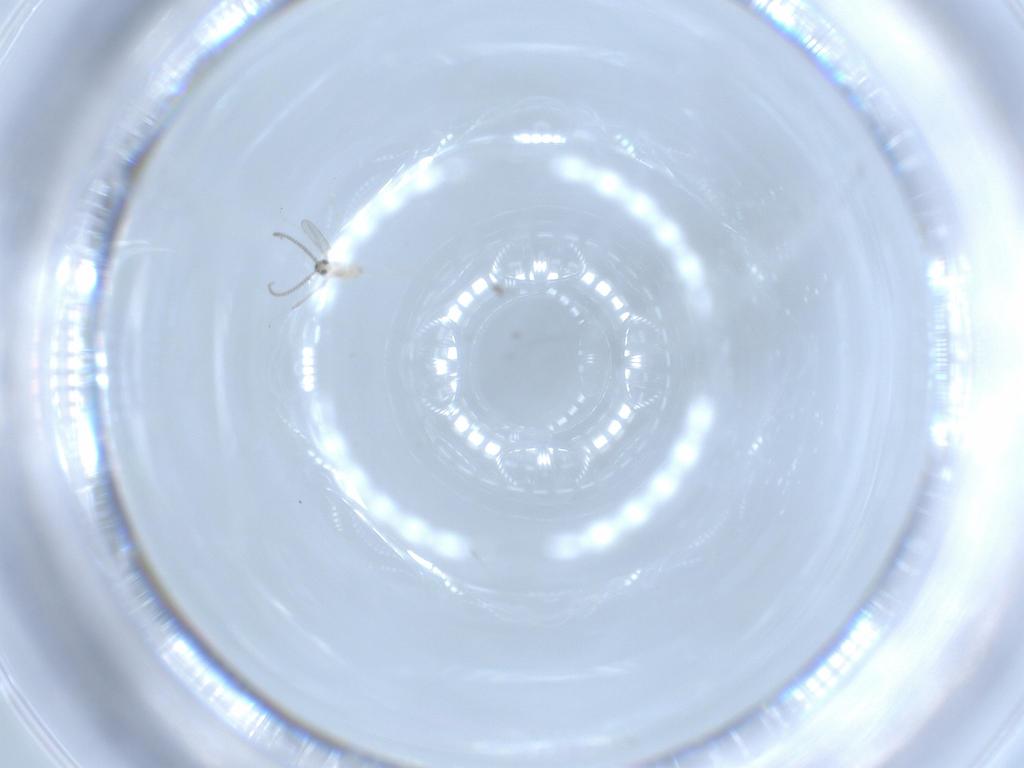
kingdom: Animalia
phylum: Arthropoda
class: Insecta
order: Diptera
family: Cecidomyiidae
